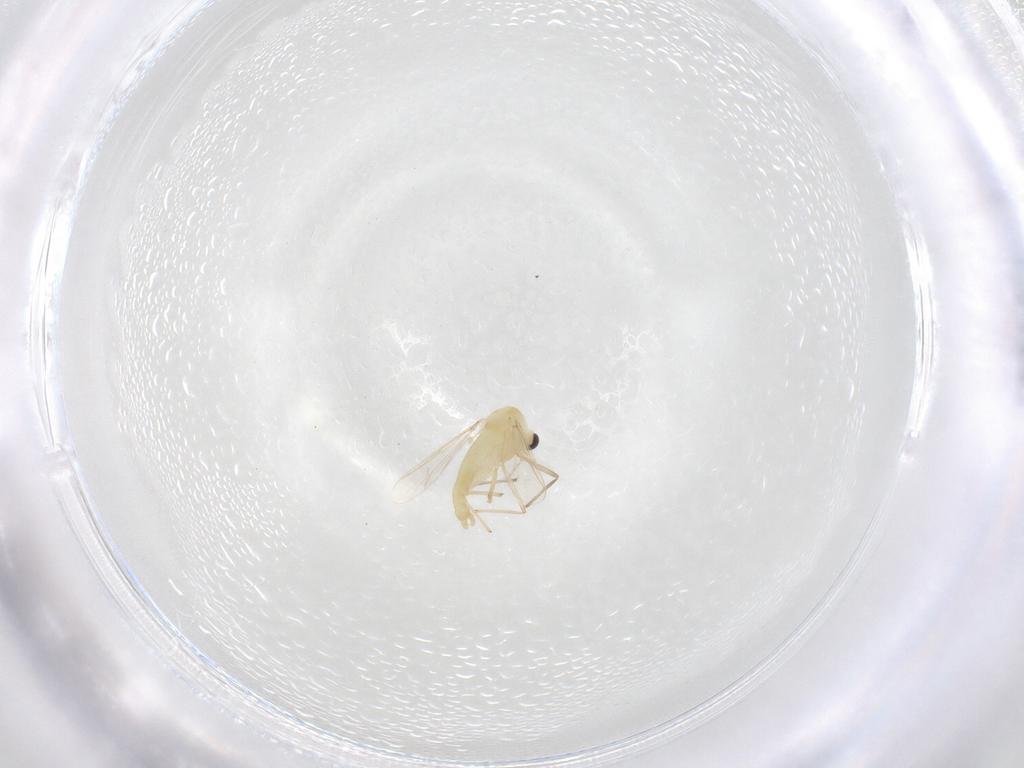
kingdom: Animalia
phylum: Arthropoda
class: Insecta
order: Diptera
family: Chironomidae
